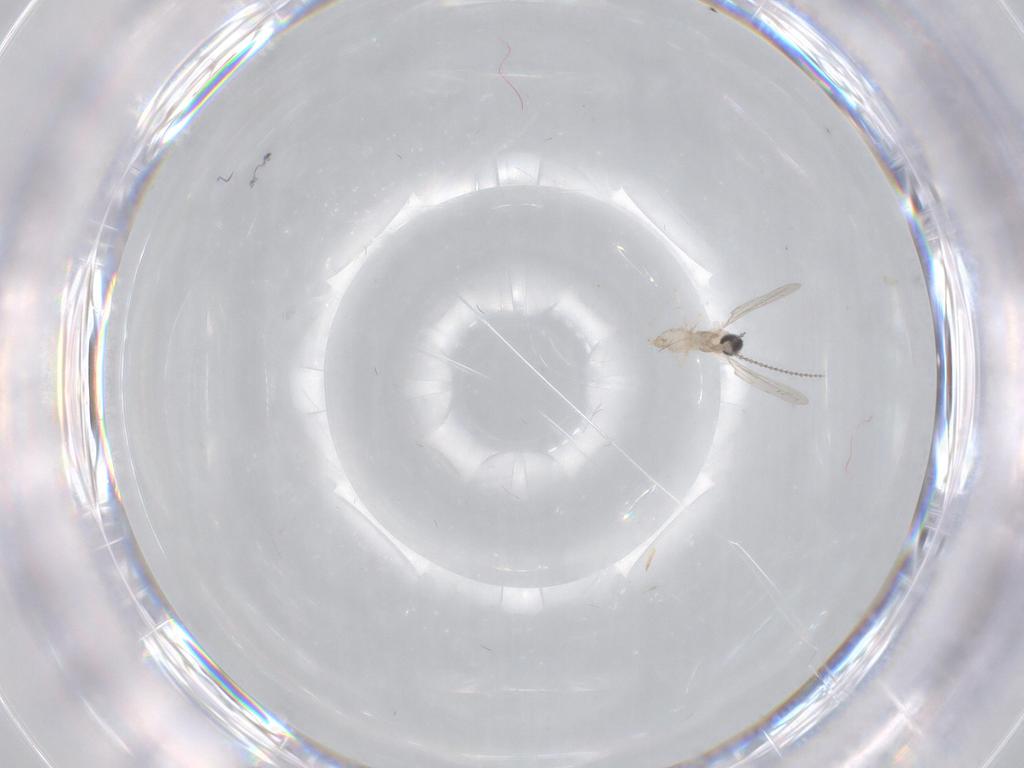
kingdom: Animalia
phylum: Arthropoda
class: Insecta
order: Diptera
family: Cecidomyiidae
